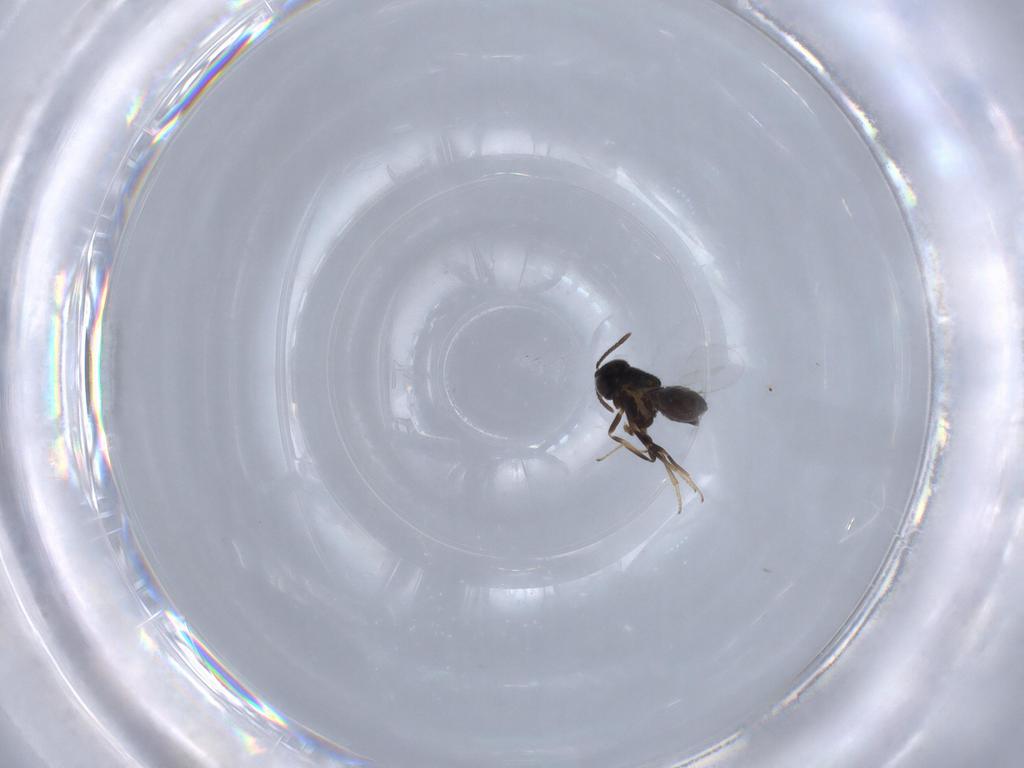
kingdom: Animalia
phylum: Arthropoda
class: Insecta
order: Hymenoptera
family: Encyrtidae
